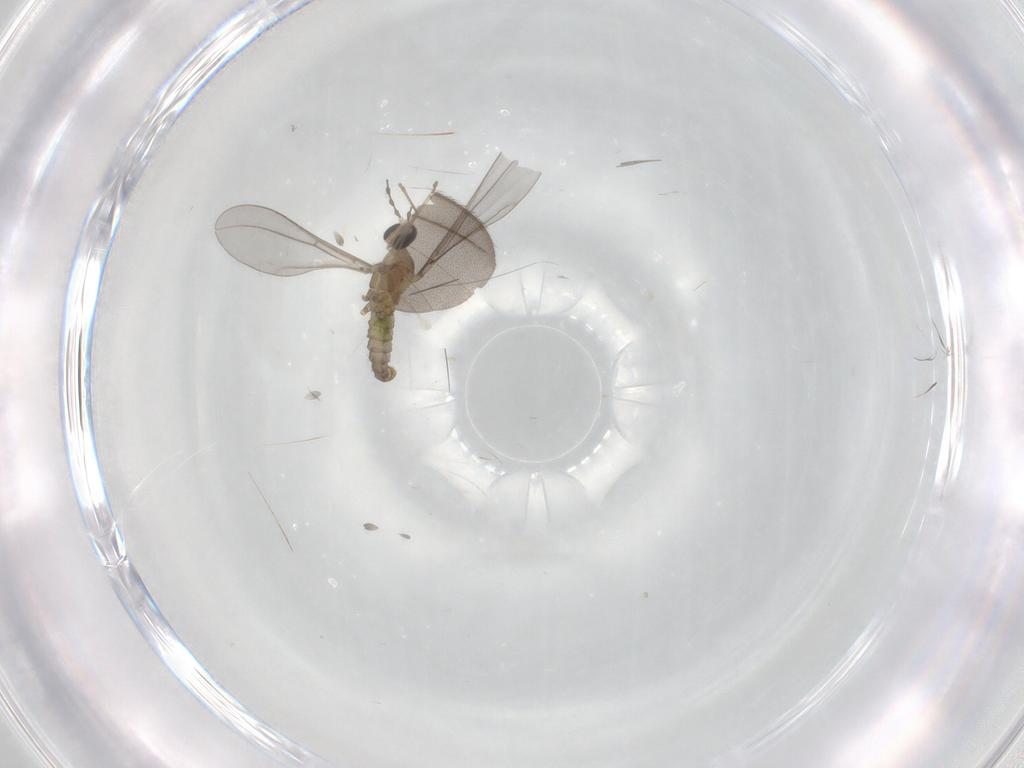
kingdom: Animalia
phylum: Arthropoda
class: Insecta
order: Diptera
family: Cecidomyiidae
